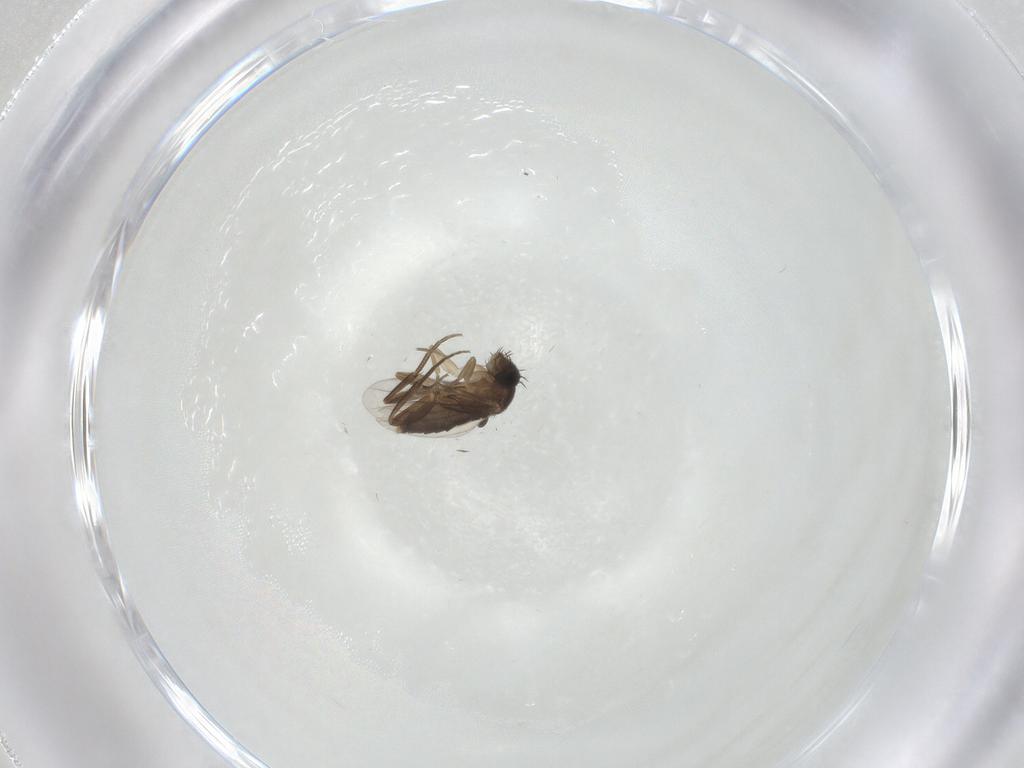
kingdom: Animalia
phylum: Arthropoda
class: Insecta
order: Diptera
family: Phoridae
